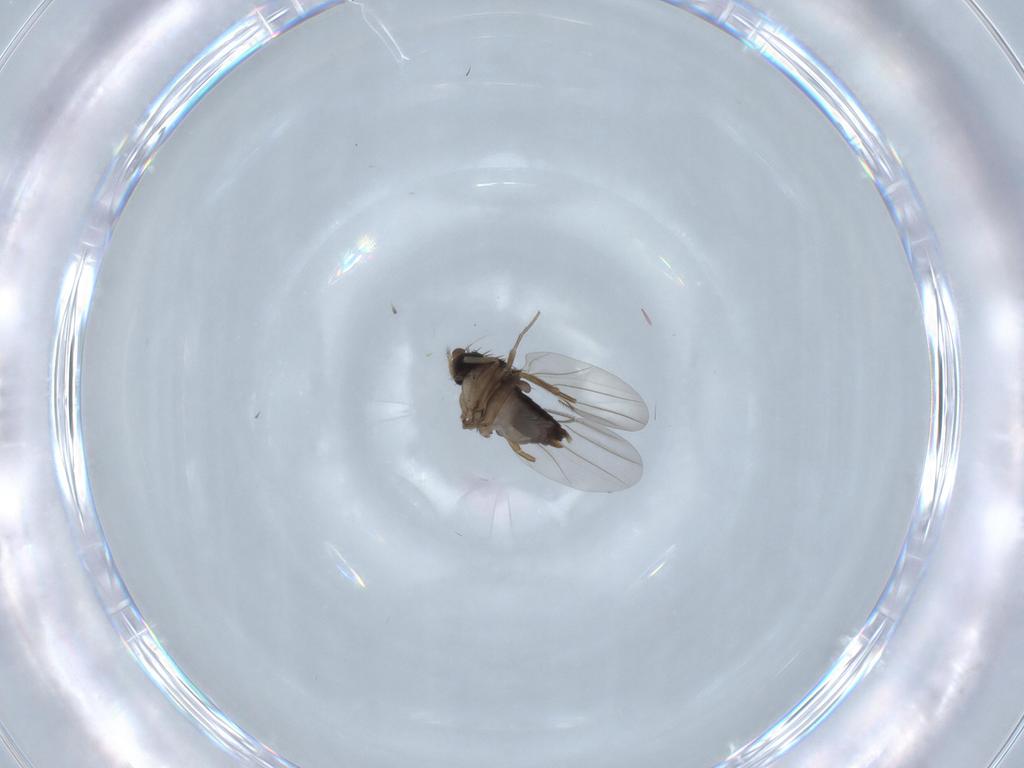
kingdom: Animalia
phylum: Arthropoda
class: Insecta
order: Diptera
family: Phoridae
